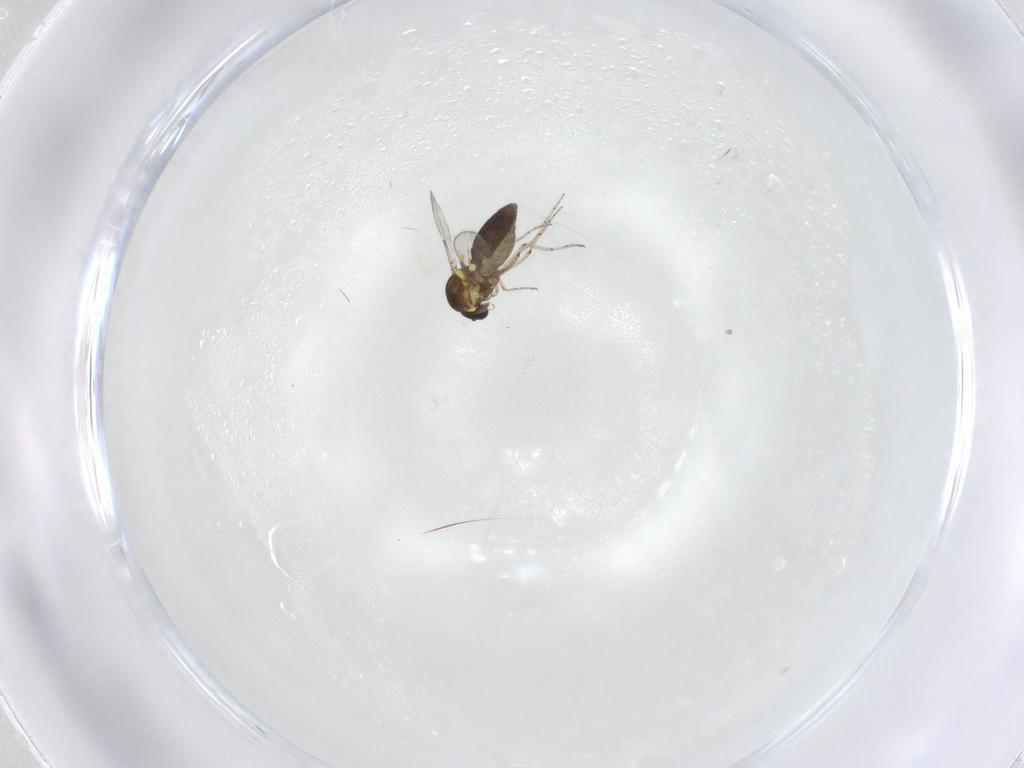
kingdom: Animalia
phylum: Arthropoda
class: Insecta
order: Diptera
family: Ceratopogonidae
